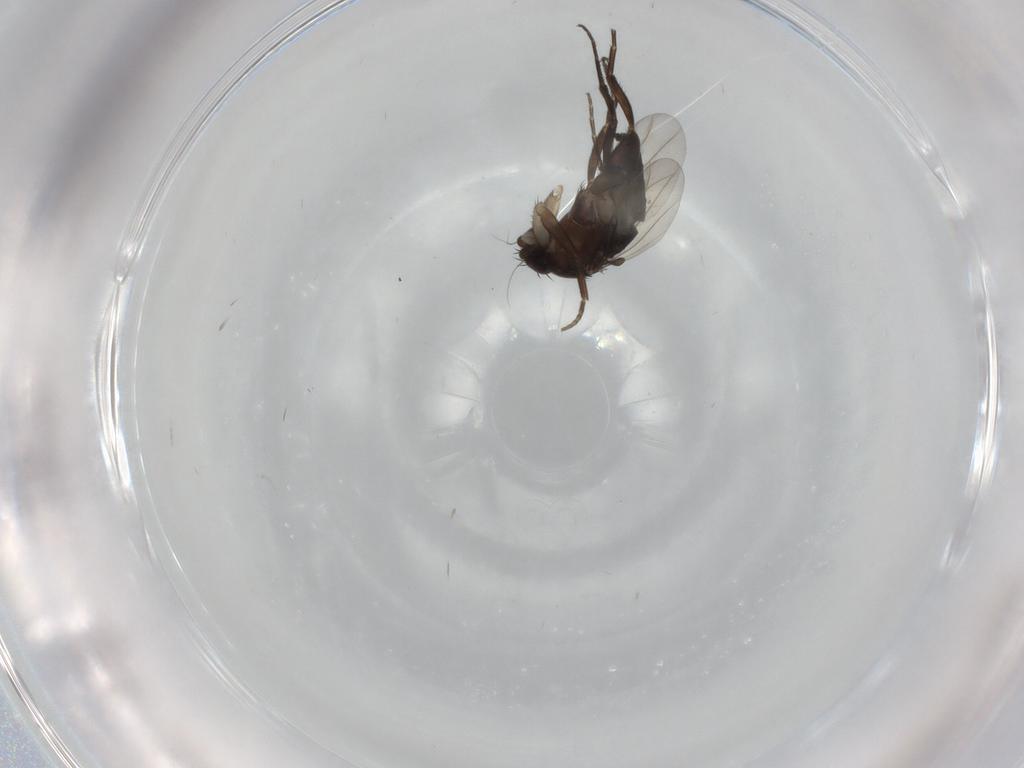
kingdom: Animalia
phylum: Arthropoda
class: Insecta
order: Diptera
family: Phoridae
